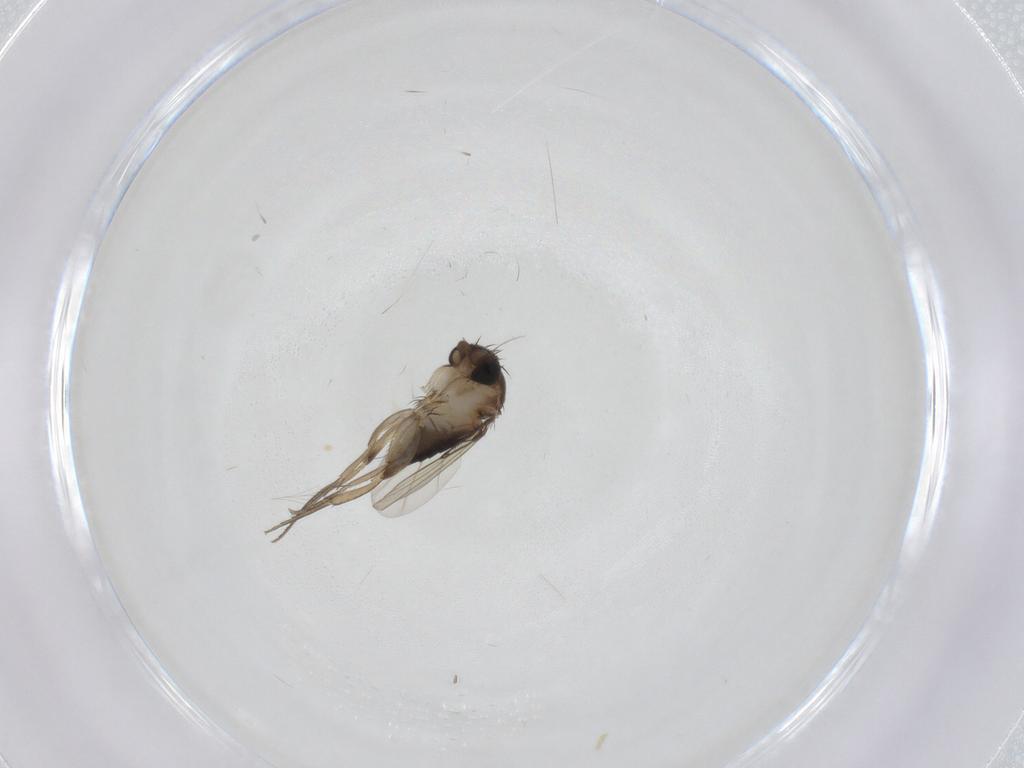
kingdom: Animalia
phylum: Arthropoda
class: Insecta
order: Diptera
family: Phoridae
